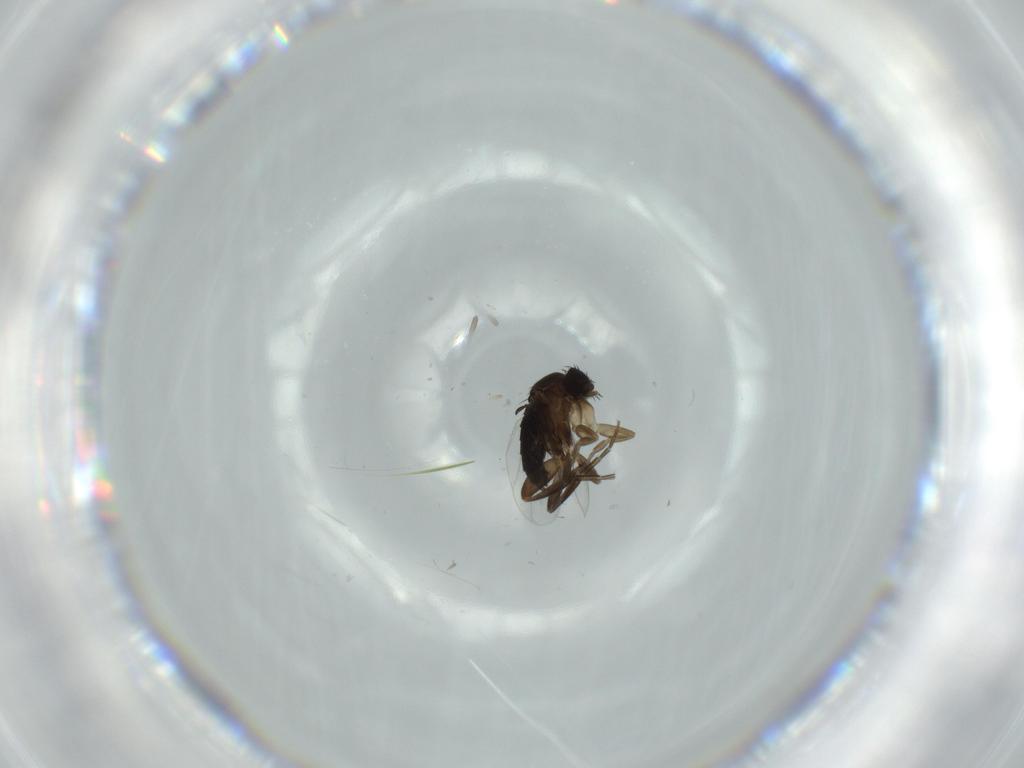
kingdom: Animalia
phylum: Arthropoda
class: Insecta
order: Diptera
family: Phoridae
